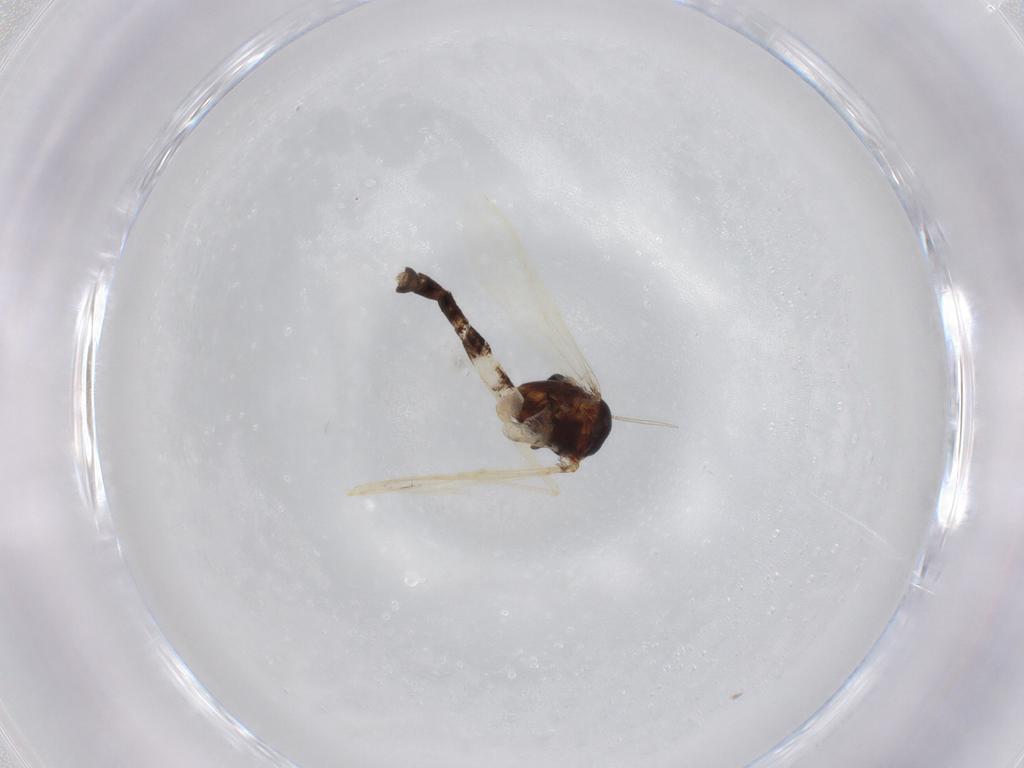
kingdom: Animalia
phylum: Arthropoda
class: Insecta
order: Diptera
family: Chironomidae
